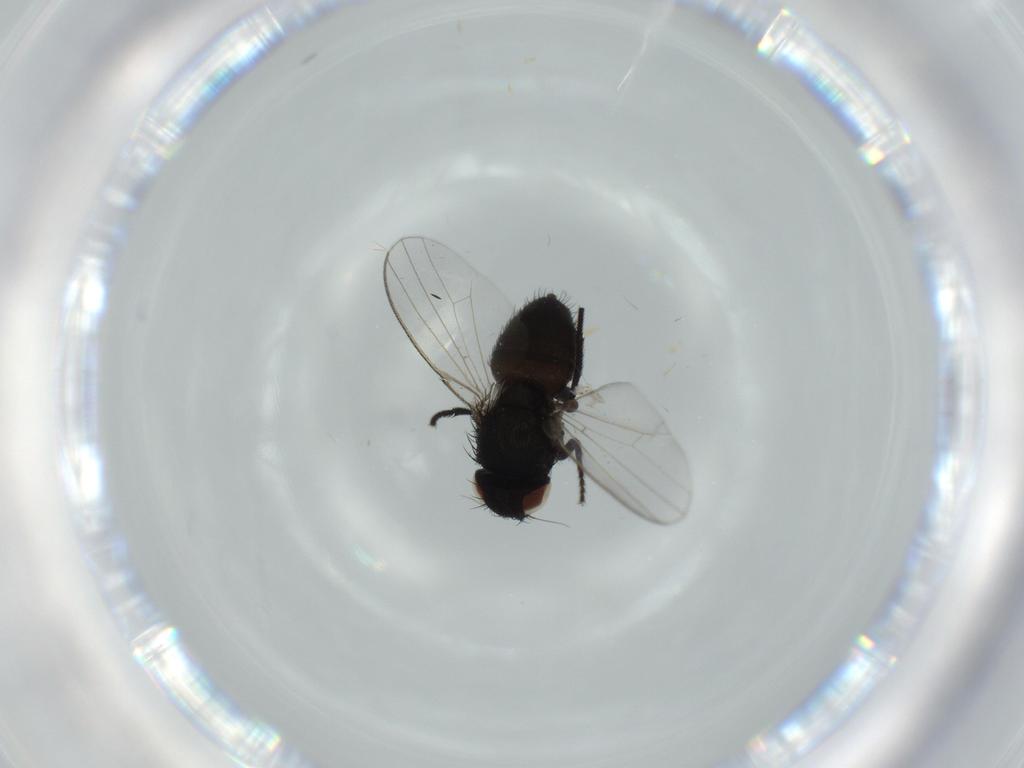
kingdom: Animalia
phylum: Arthropoda
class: Insecta
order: Diptera
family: Milichiidae
